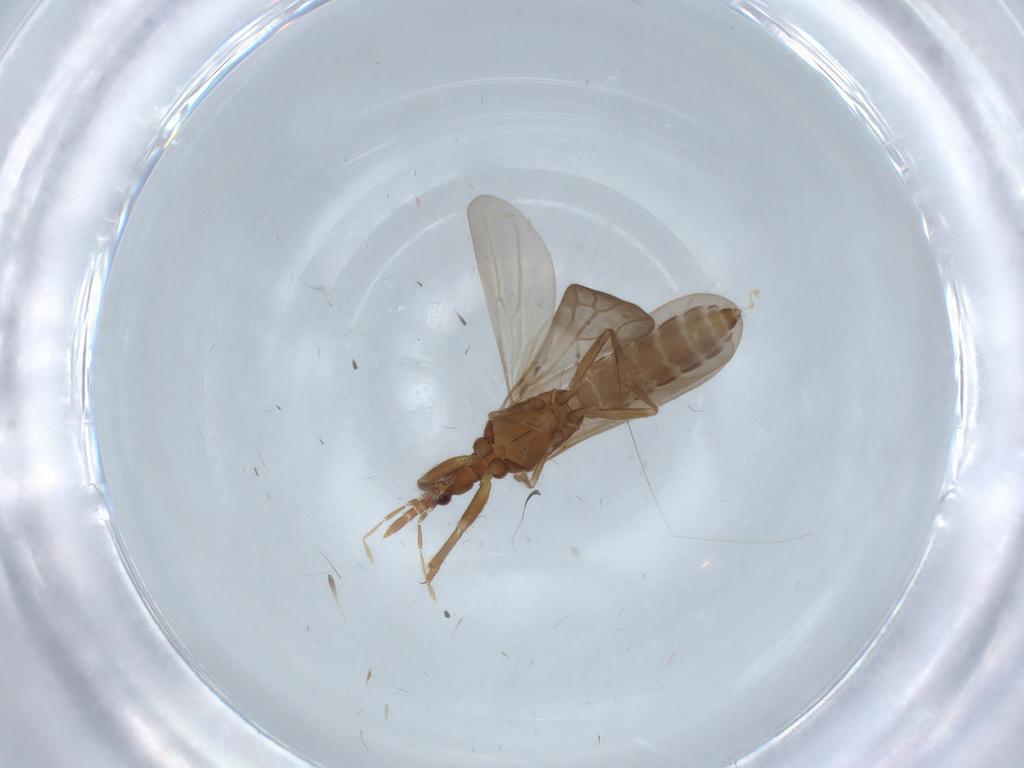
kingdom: Animalia
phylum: Arthropoda
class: Insecta
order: Hemiptera
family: Enicocephalidae
